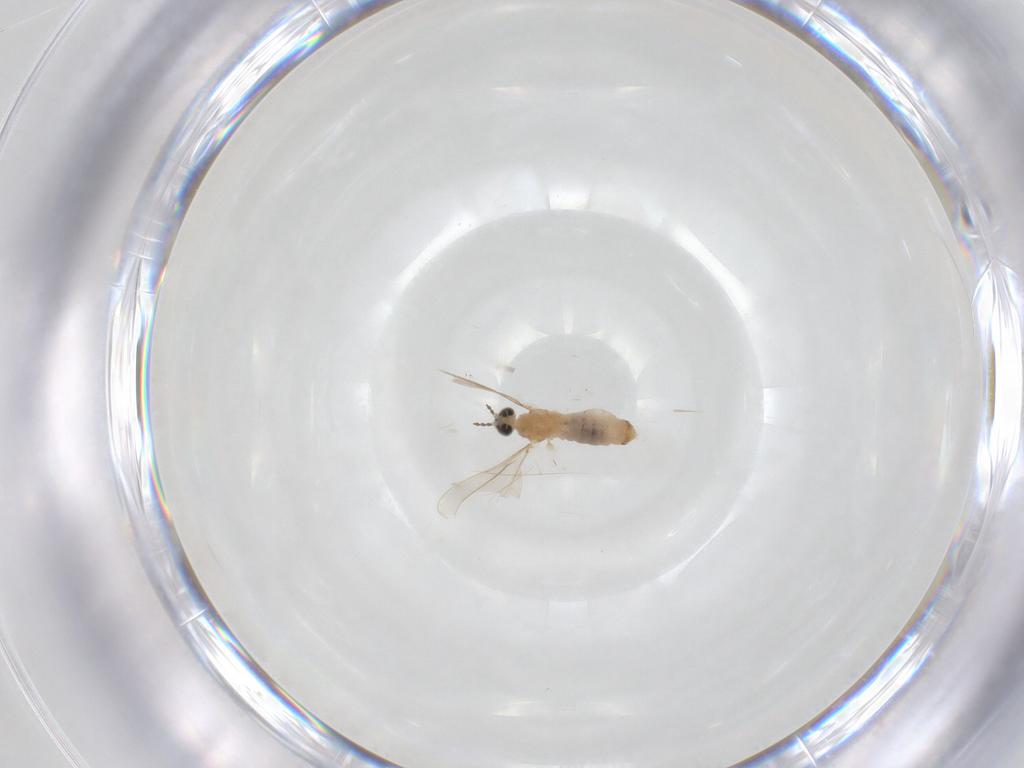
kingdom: Animalia
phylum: Arthropoda
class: Insecta
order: Diptera
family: Cecidomyiidae
